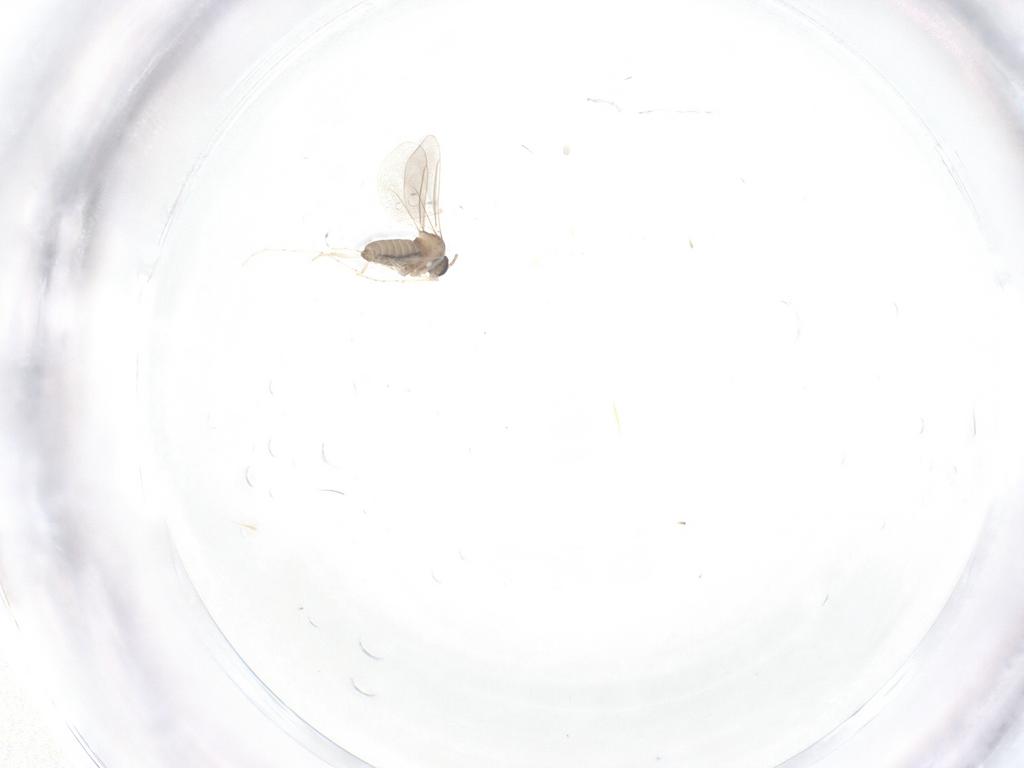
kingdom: Animalia
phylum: Arthropoda
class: Insecta
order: Diptera
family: Cecidomyiidae
